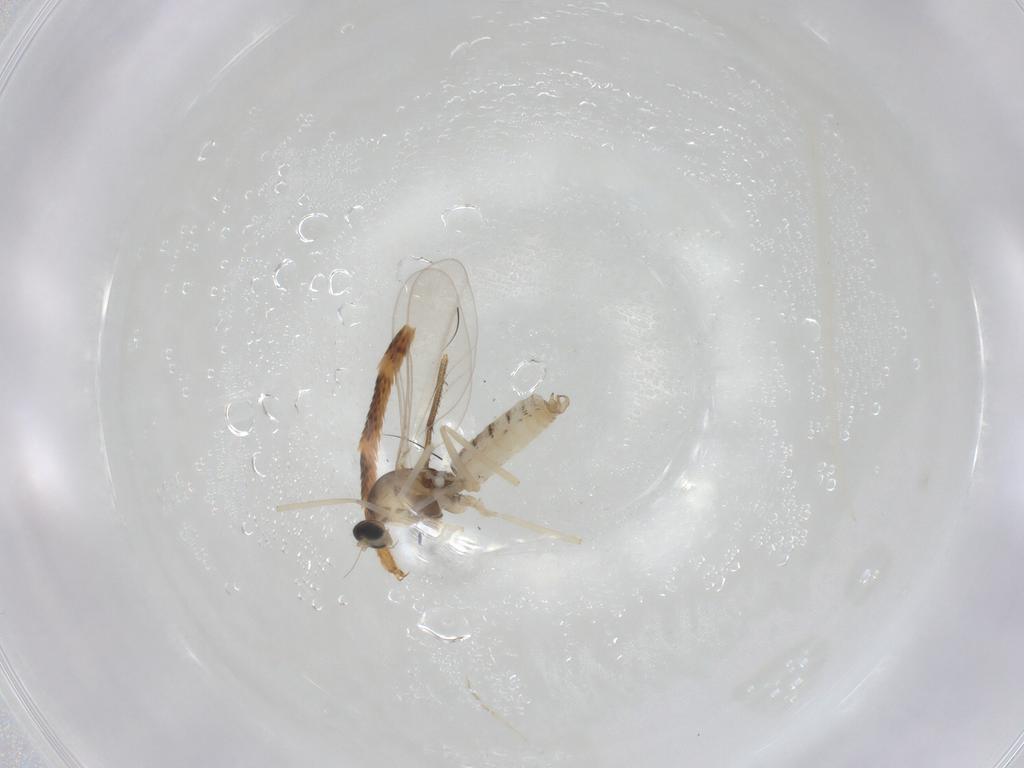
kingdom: Animalia
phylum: Arthropoda
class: Insecta
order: Diptera
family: Cecidomyiidae
